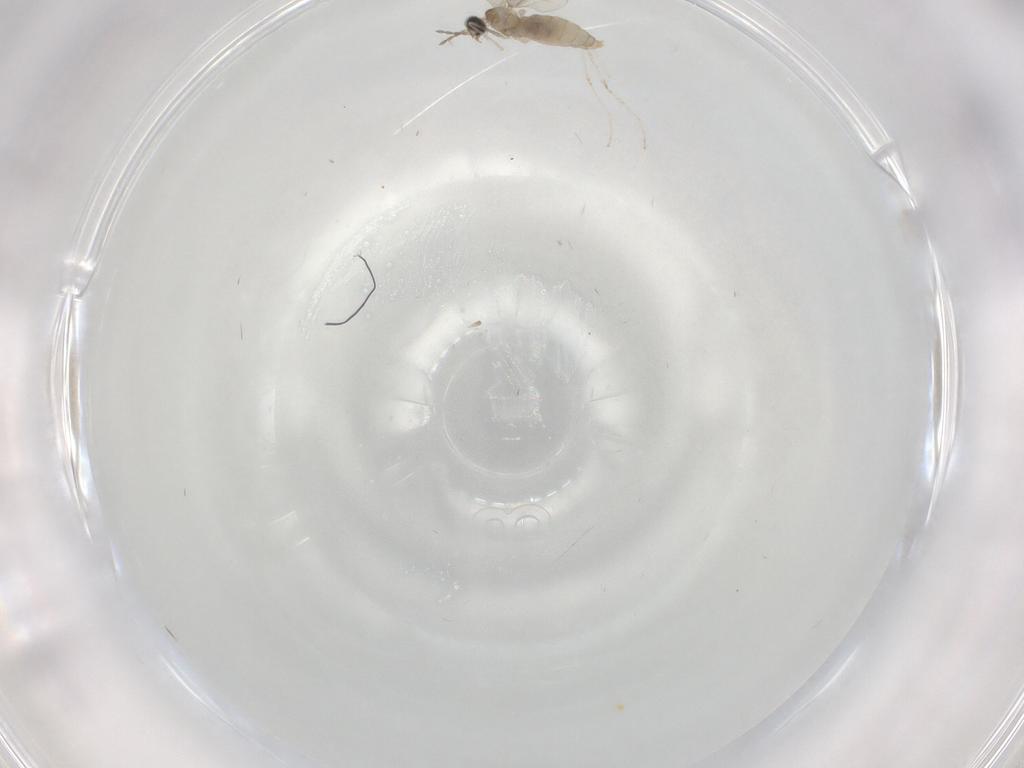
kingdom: Animalia
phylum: Arthropoda
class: Insecta
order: Diptera
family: Cecidomyiidae
